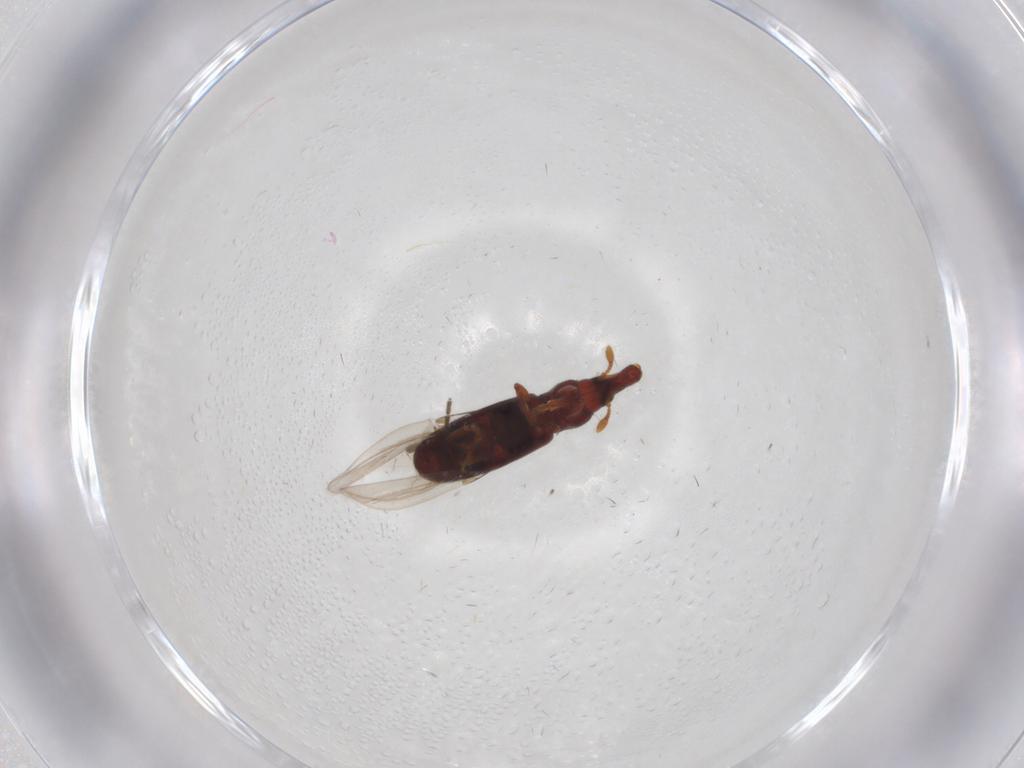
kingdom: Animalia
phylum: Arthropoda
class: Insecta
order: Coleoptera
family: Curculionidae
